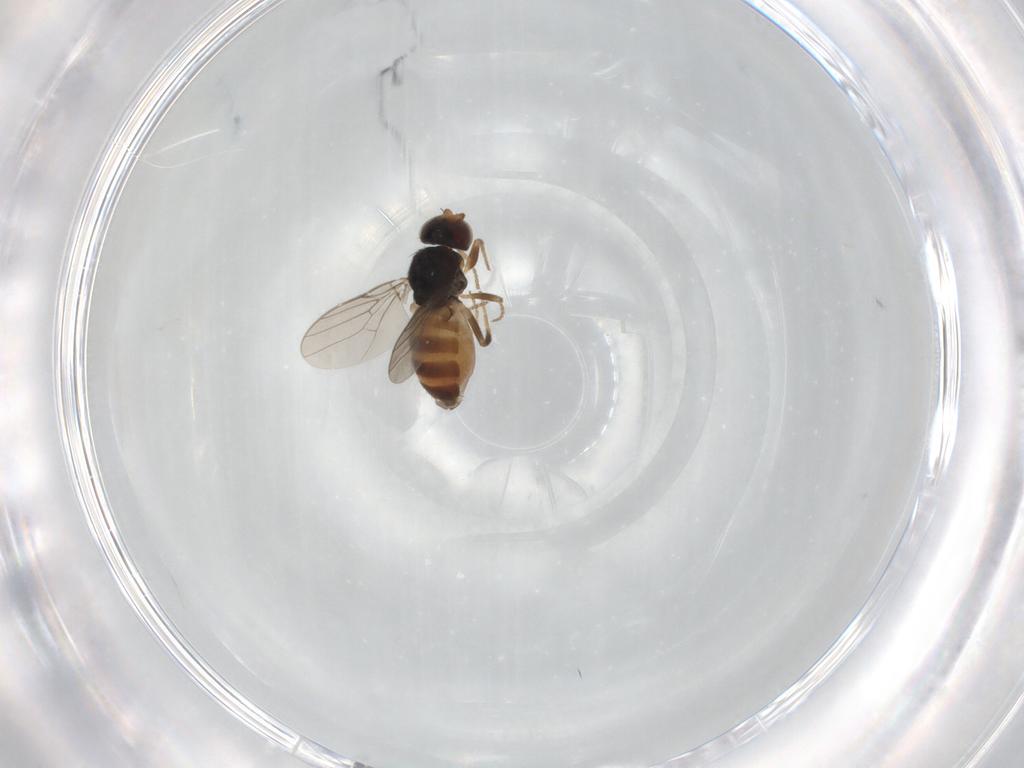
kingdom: Animalia
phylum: Arthropoda
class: Insecta
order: Diptera
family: Chloropidae
